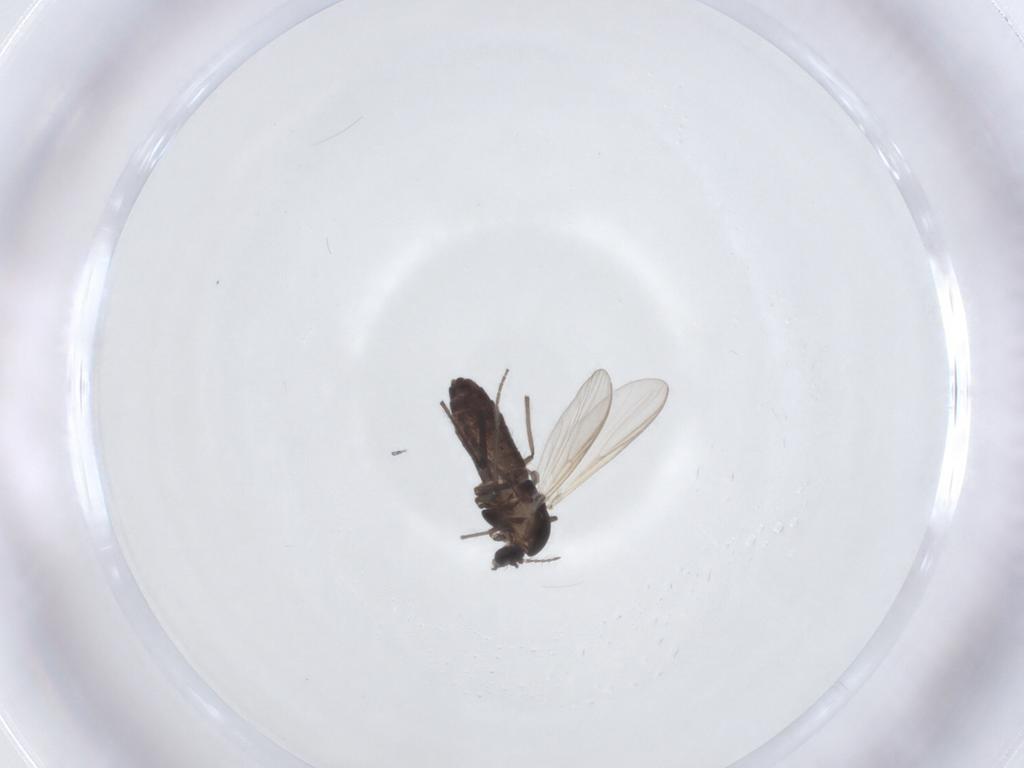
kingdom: Animalia
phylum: Arthropoda
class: Insecta
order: Diptera
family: Chironomidae
